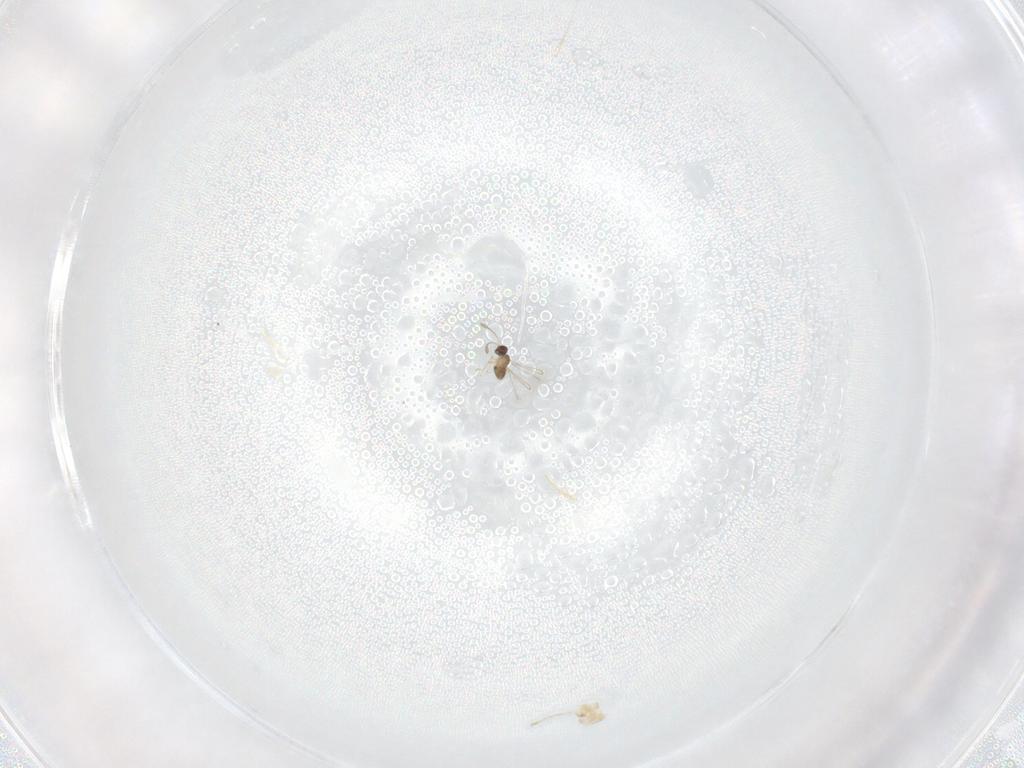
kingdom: Animalia
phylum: Arthropoda
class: Insecta
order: Hymenoptera
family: Mymaridae
